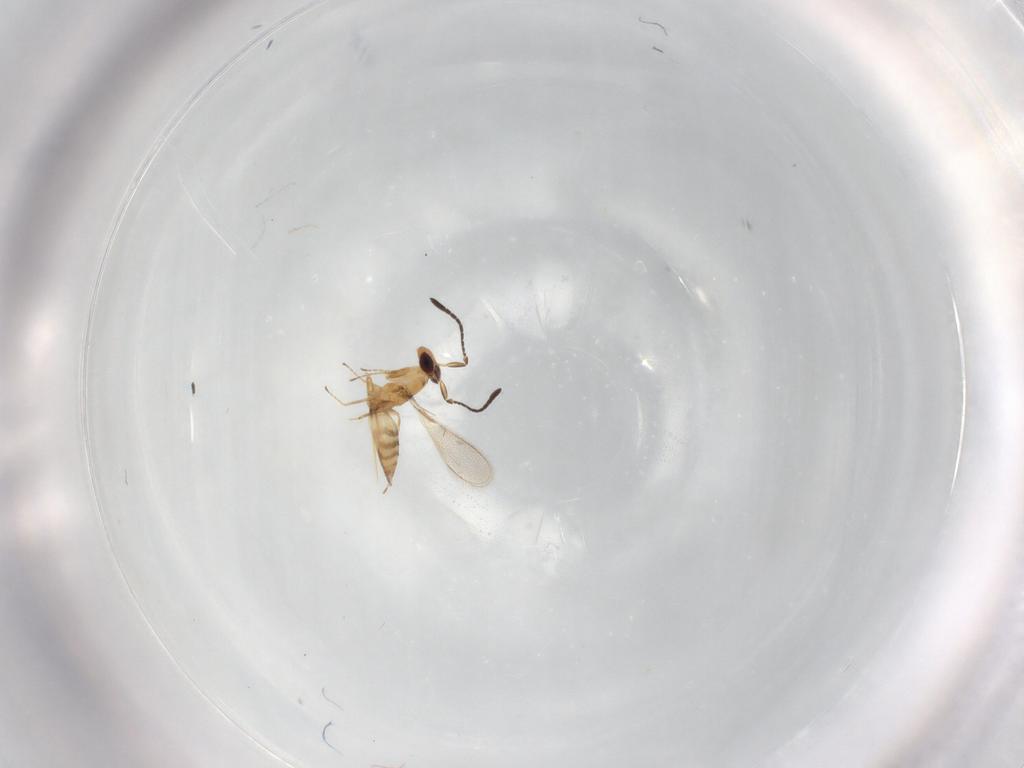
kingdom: Animalia
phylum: Arthropoda
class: Insecta
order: Hymenoptera
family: Mymaridae
